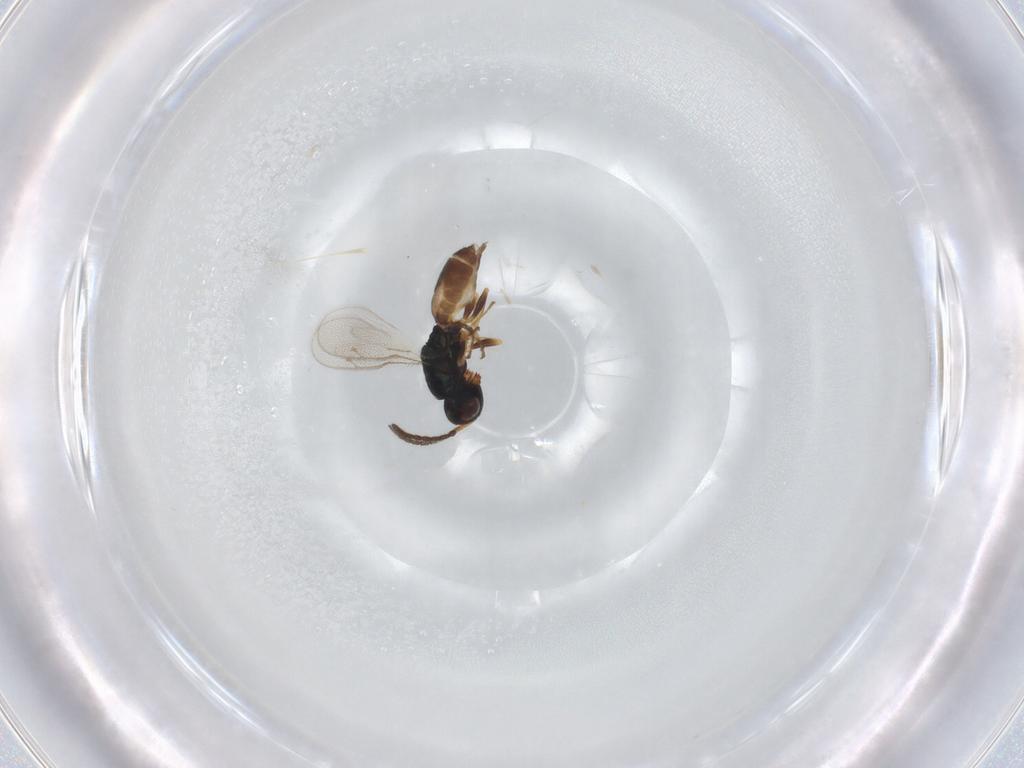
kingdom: Animalia
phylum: Arthropoda
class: Insecta
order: Hymenoptera
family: Pteromalidae
